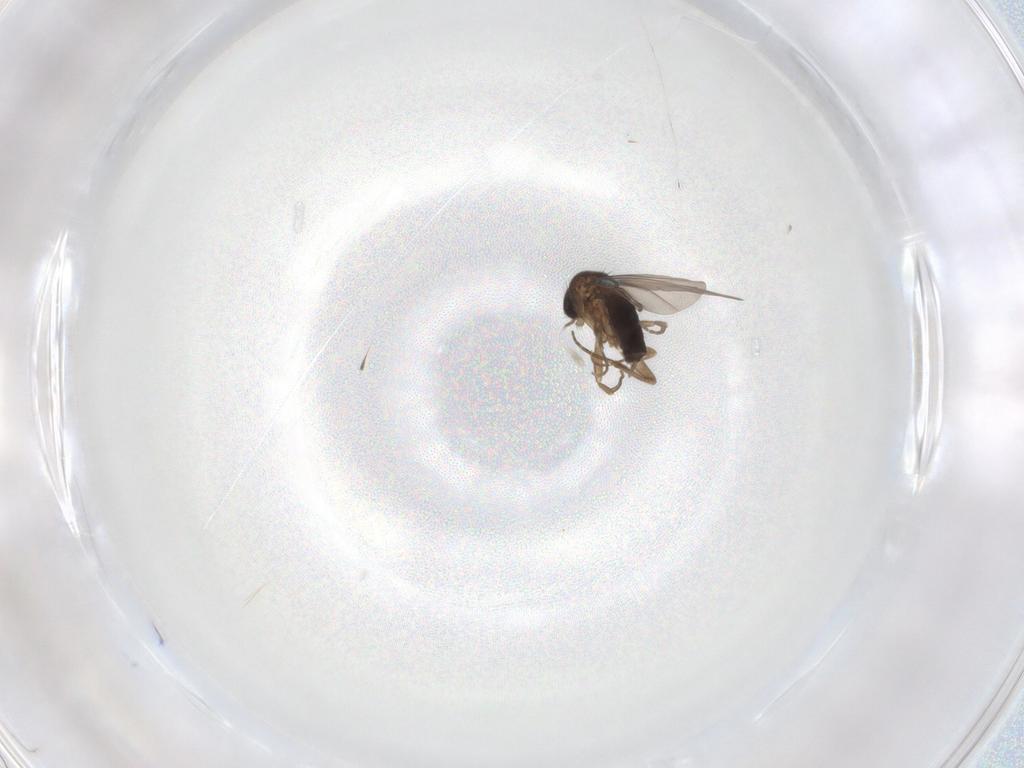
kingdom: Animalia
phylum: Arthropoda
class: Insecta
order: Diptera
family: Phoridae
